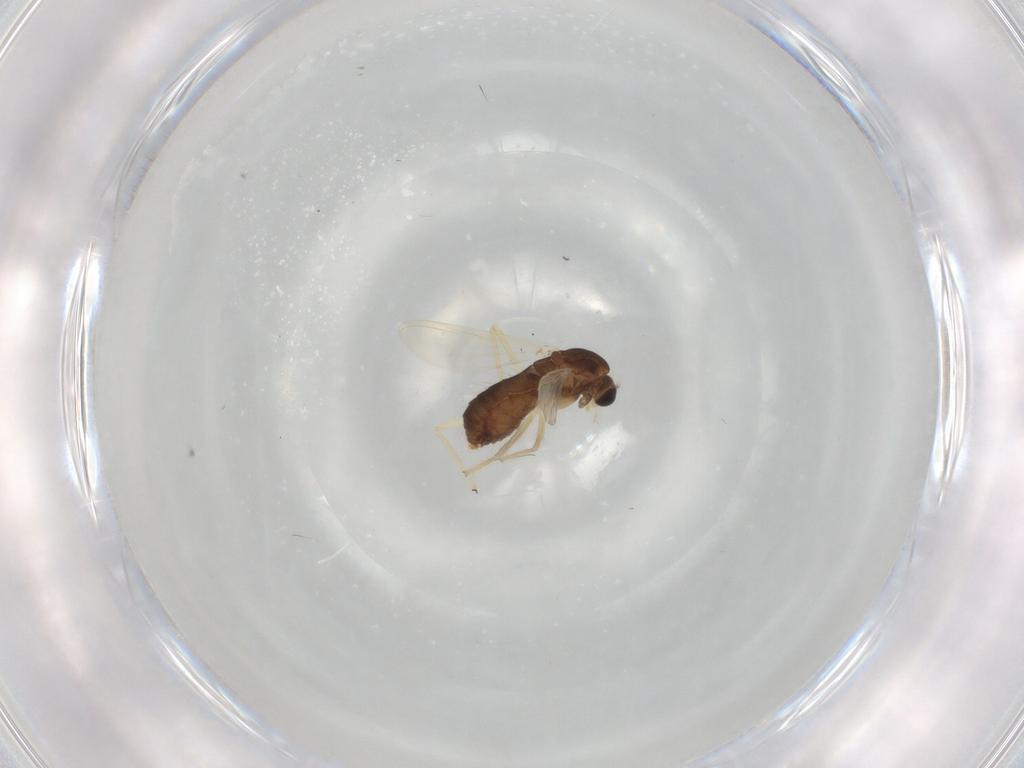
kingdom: Animalia
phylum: Arthropoda
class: Insecta
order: Diptera
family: Chironomidae
